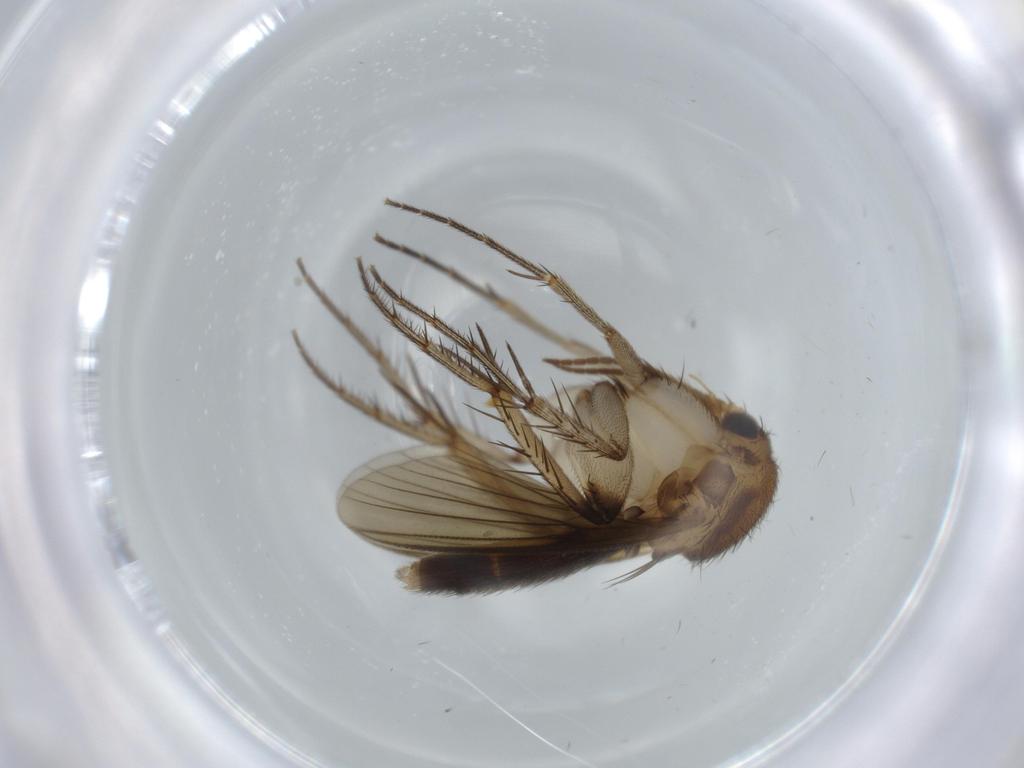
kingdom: Animalia
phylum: Arthropoda
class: Insecta
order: Diptera
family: Mycetophilidae
